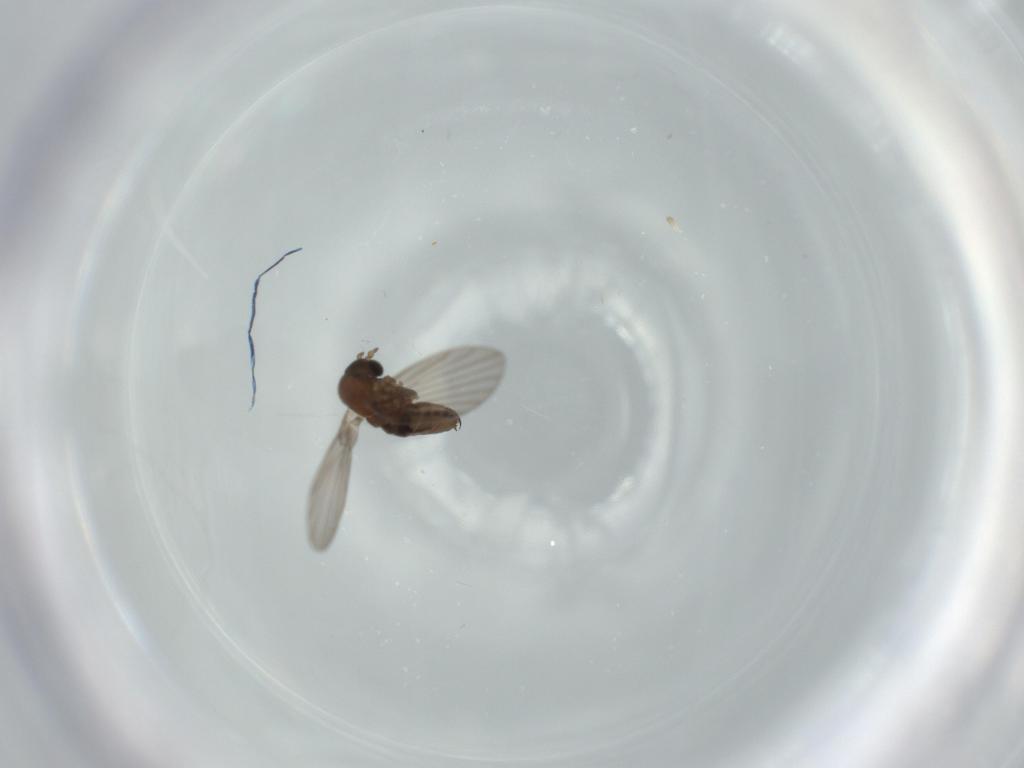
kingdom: Animalia
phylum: Arthropoda
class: Insecta
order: Diptera
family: Psychodidae
